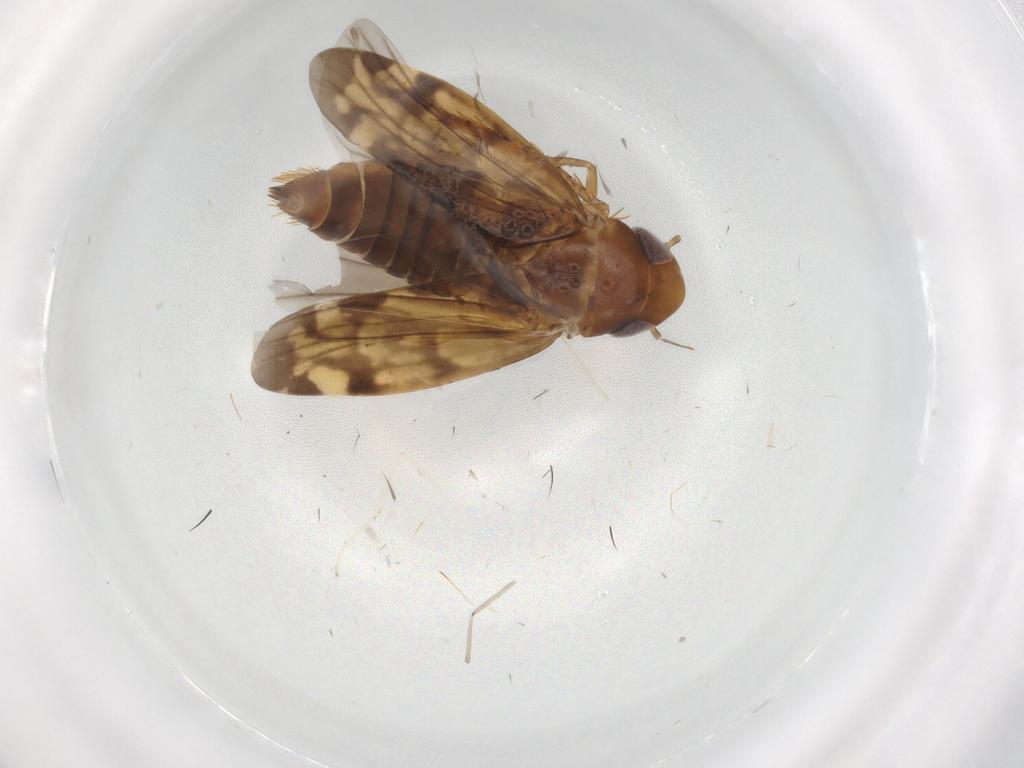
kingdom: Animalia
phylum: Arthropoda
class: Insecta
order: Hemiptera
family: Cicadellidae
